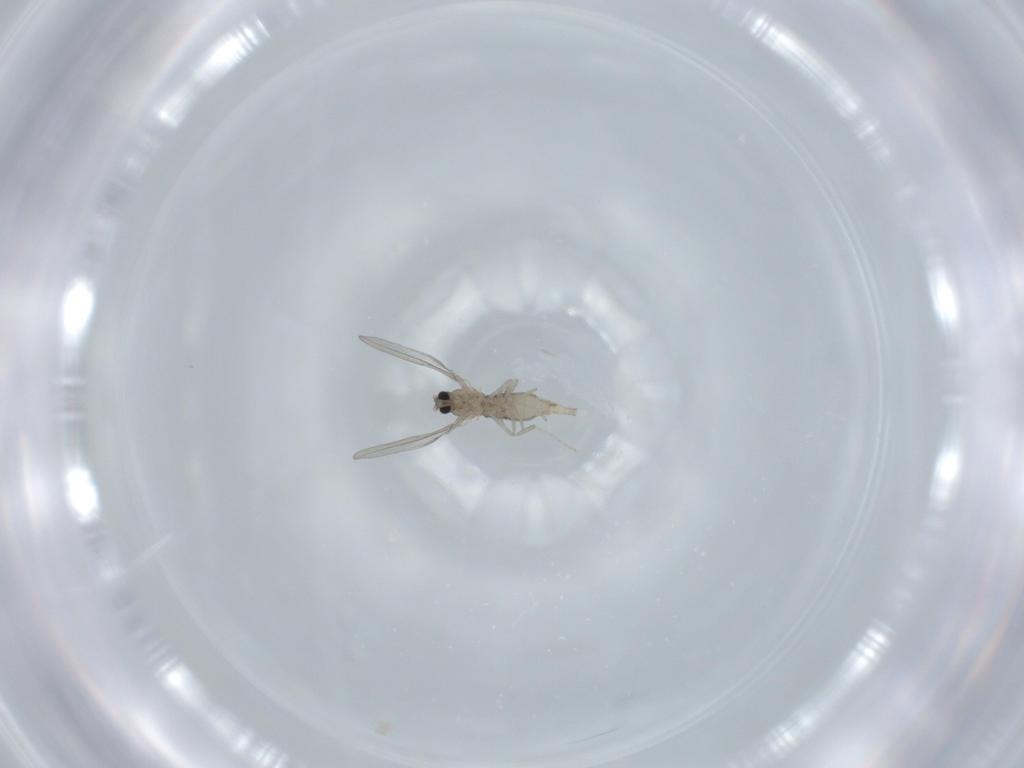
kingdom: Animalia
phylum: Arthropoda
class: Insecta
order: Diptera
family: Cecidomyiidae
